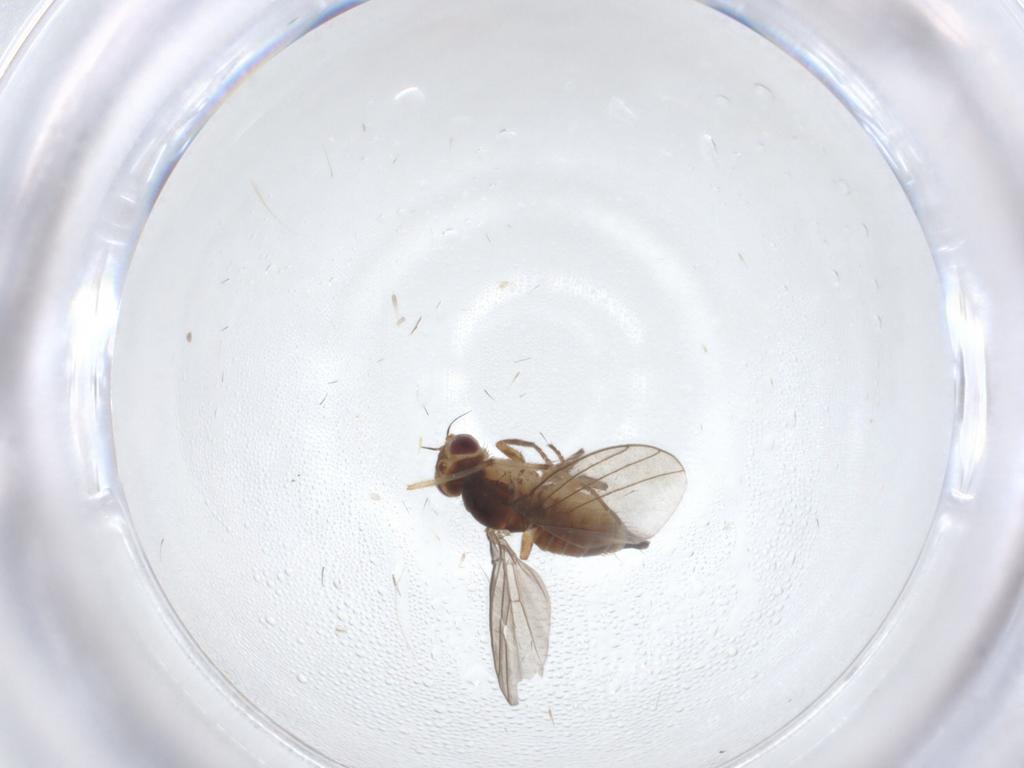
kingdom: Animalia
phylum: Arthropoda
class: Insecta
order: Diptera
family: Agromyzidae
